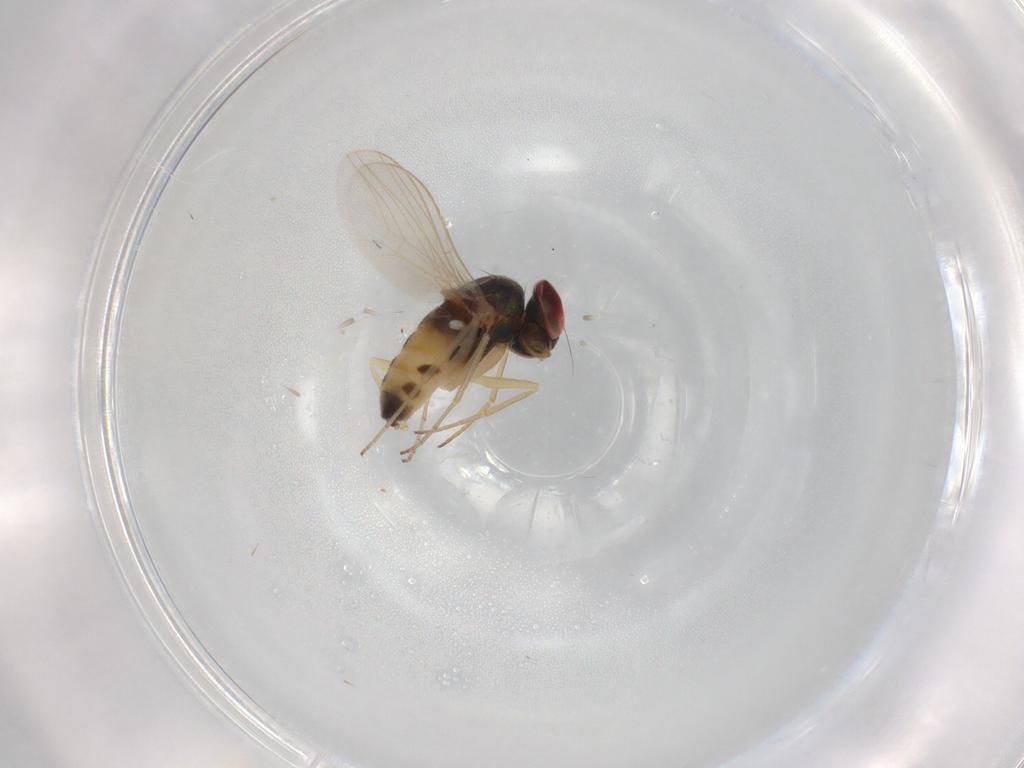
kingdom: Animalia
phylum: Arthropoda
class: Insecta
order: Diptera
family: Dolichopodidae
